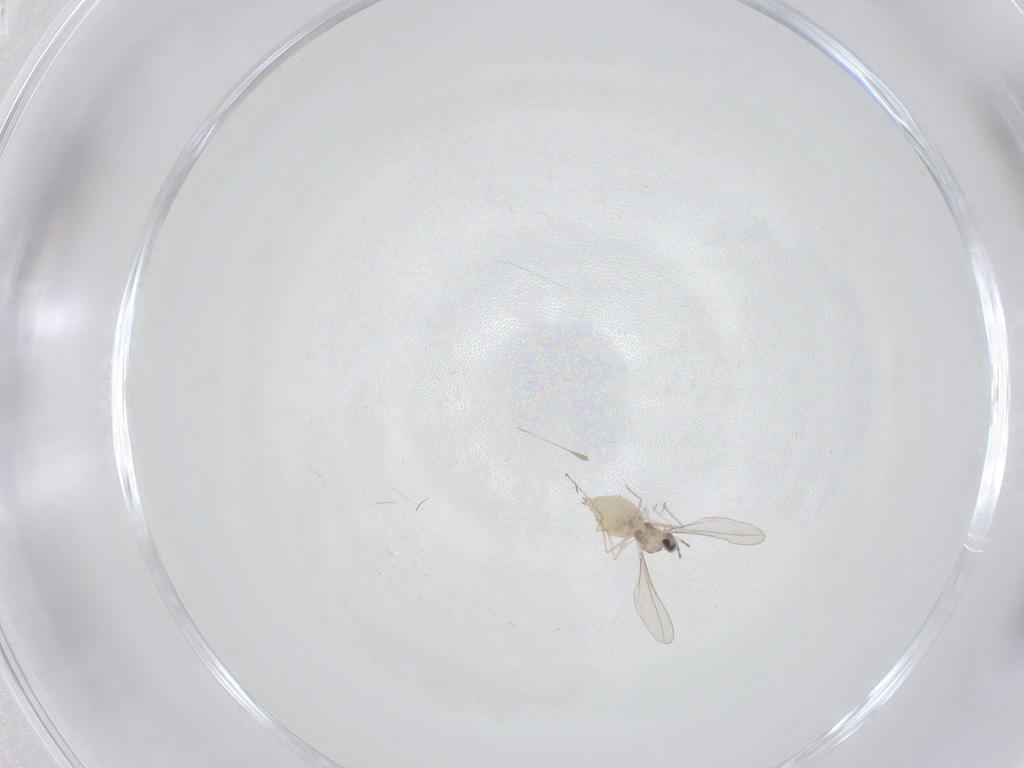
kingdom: Animalia
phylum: Arthropoda
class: Insecta
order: Diptera
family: Cecidomyiidae
